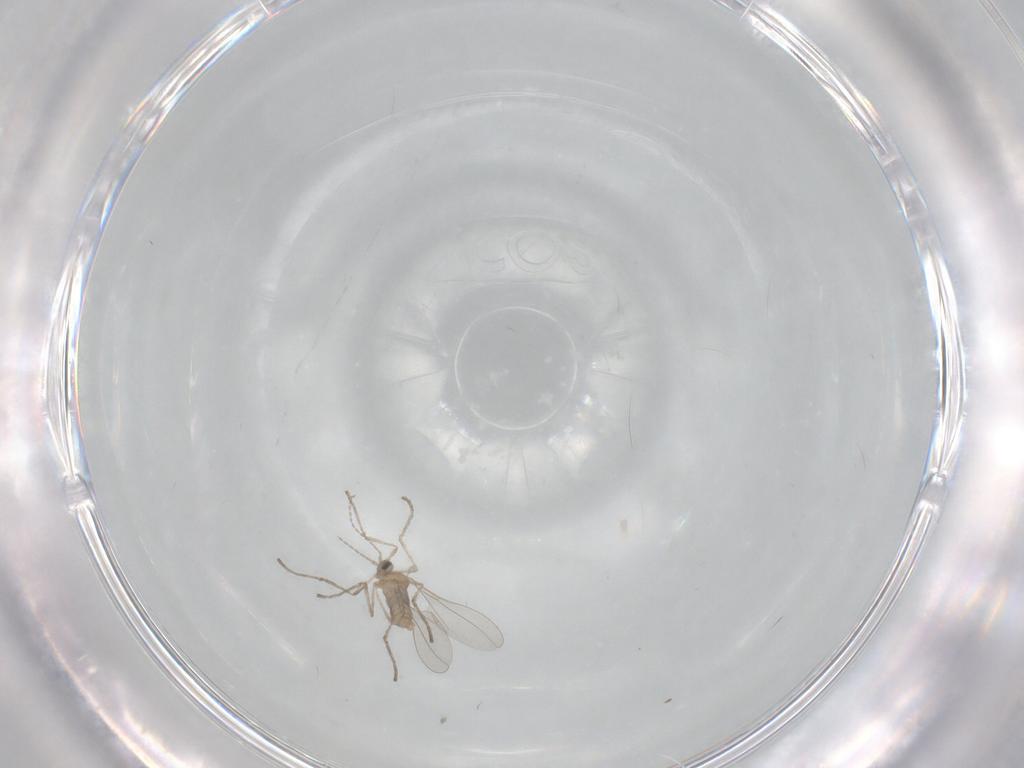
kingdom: Animalia
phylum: Arthropoda
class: Insecta
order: Diptera
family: Cecidomyiidae
